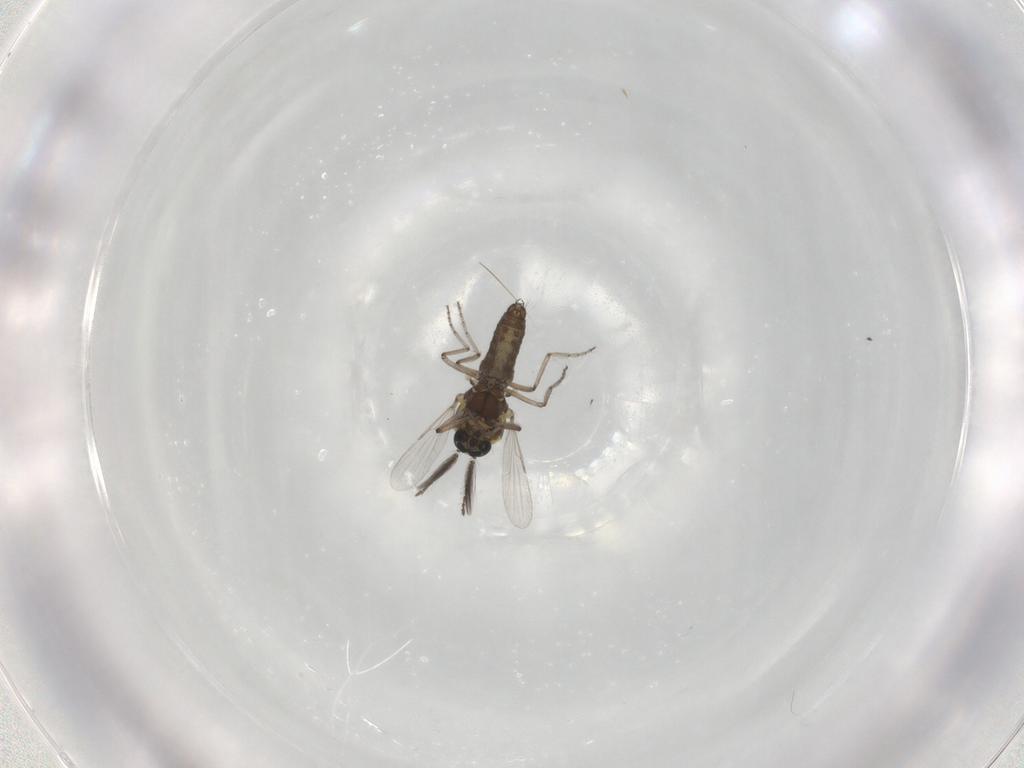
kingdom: Animalia
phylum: Arthropoda
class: Insecta
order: Diptera
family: Ceratopogonidae
